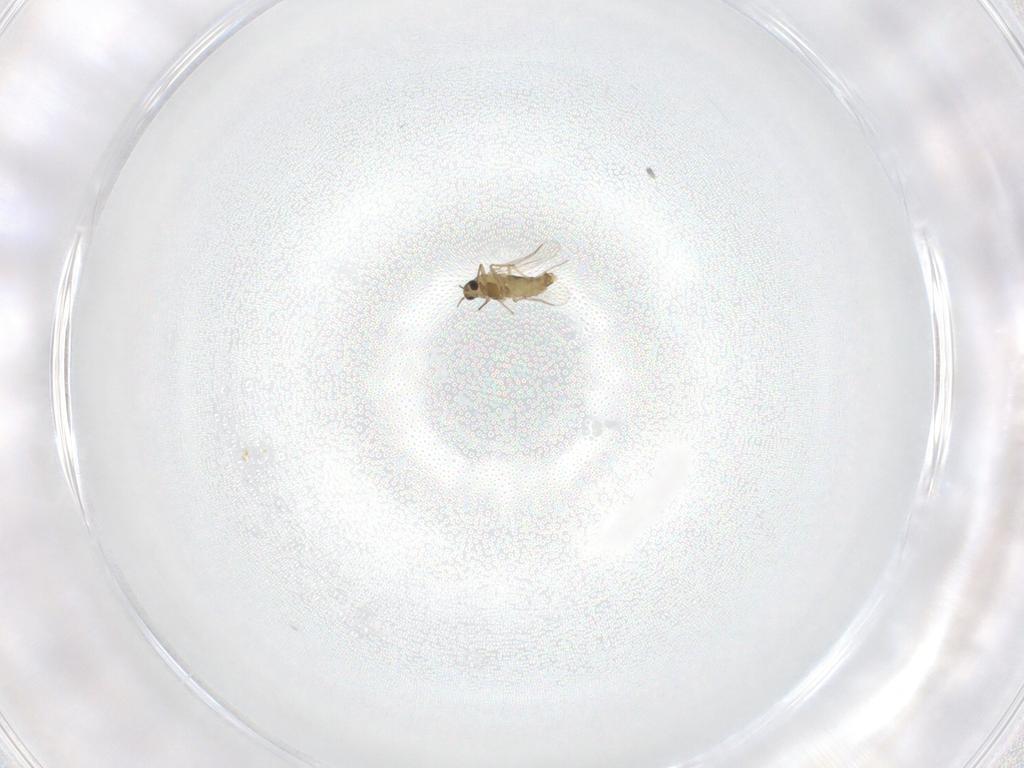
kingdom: Animalia
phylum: Arthropoda
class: Insecta
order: Diptera
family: Chironomidae
